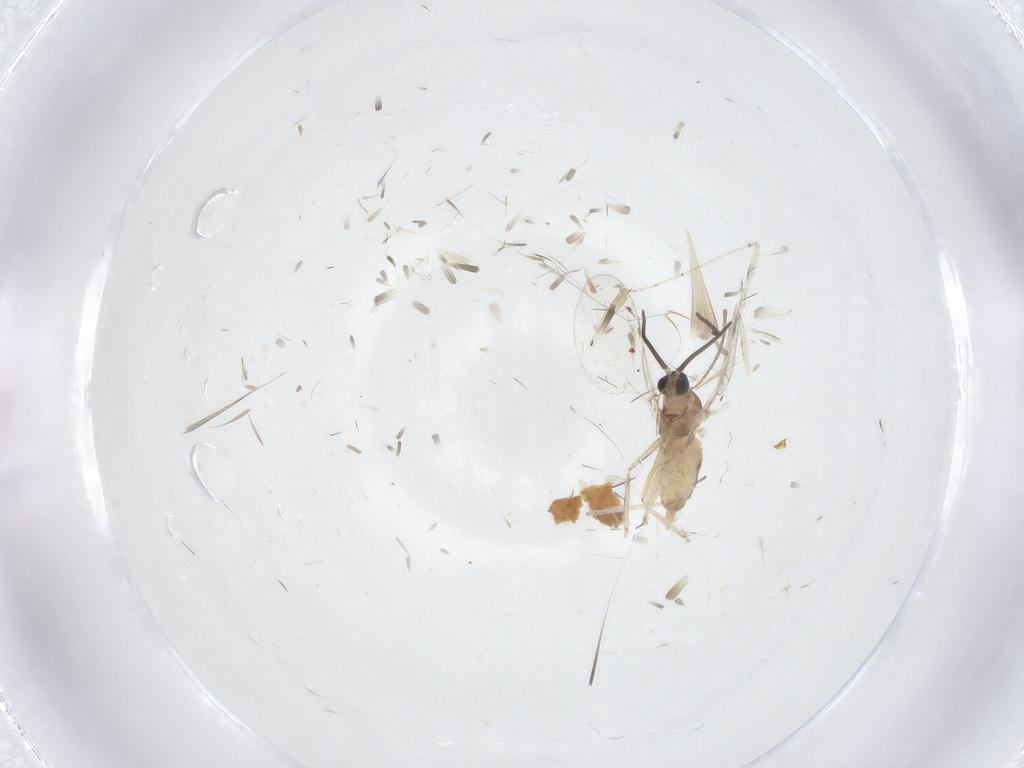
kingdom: Animalia
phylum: Arthropoda
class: Insecta
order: Diptera
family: Cecidomyiidae
